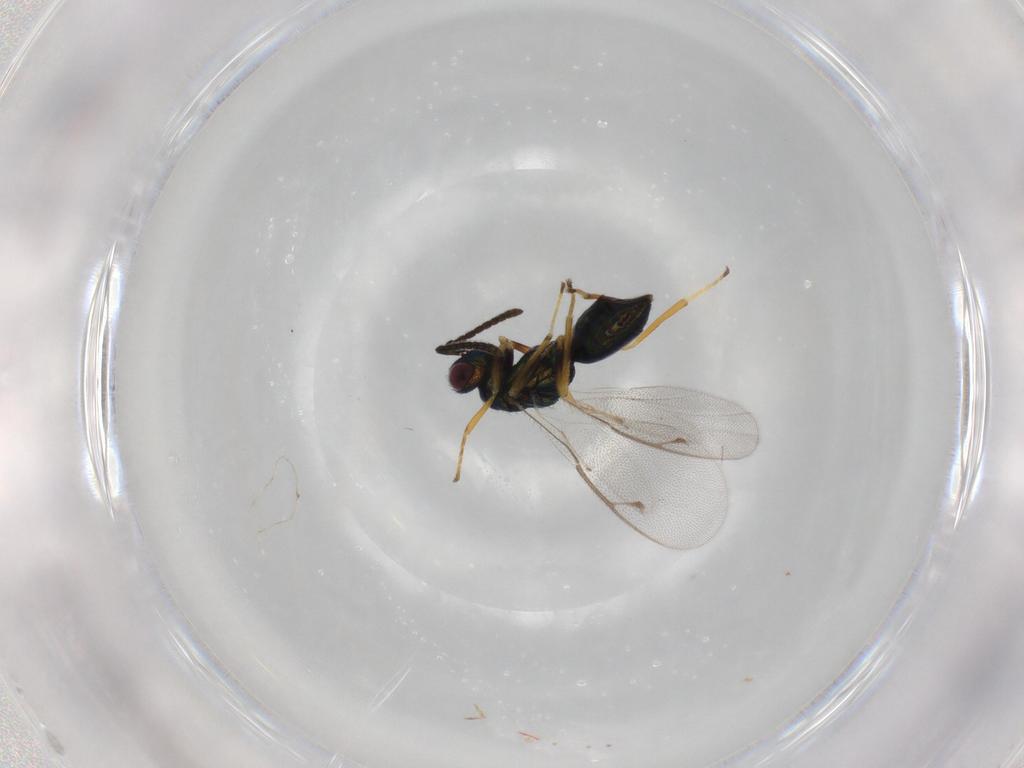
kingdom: Animalia
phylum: Arthropoda
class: Insecta
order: Hymenoptera
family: Pteromalidae
